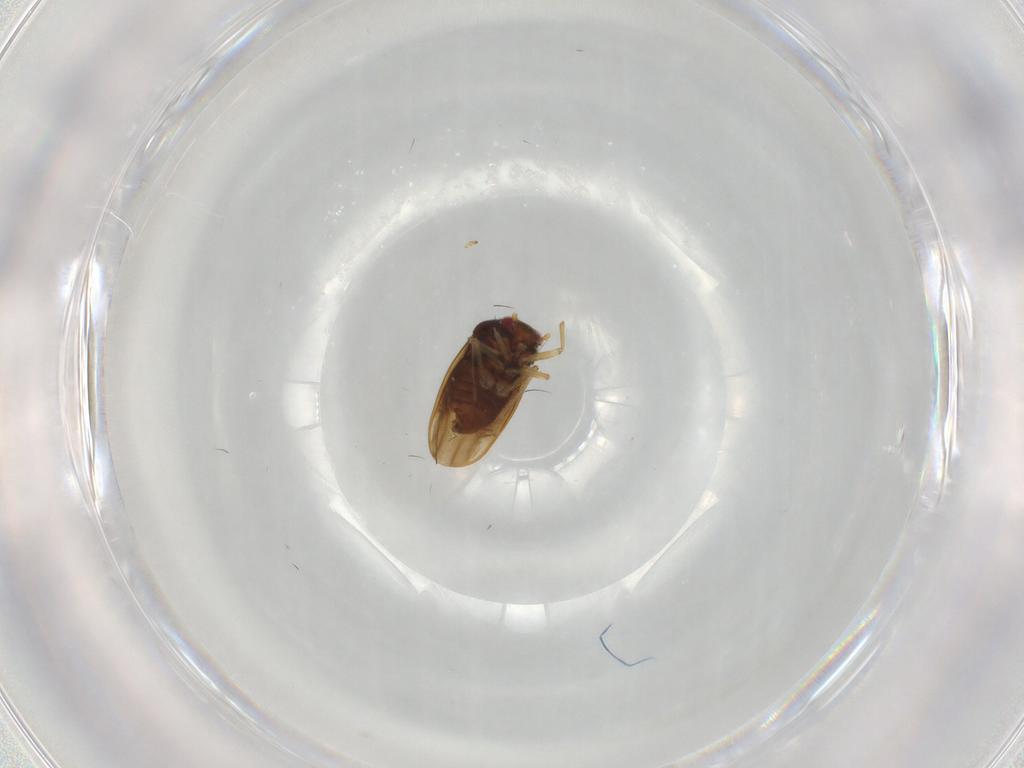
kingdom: Animalia
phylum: Arthropoda
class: Insecta
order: Hemiptera
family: Schizopteridae
